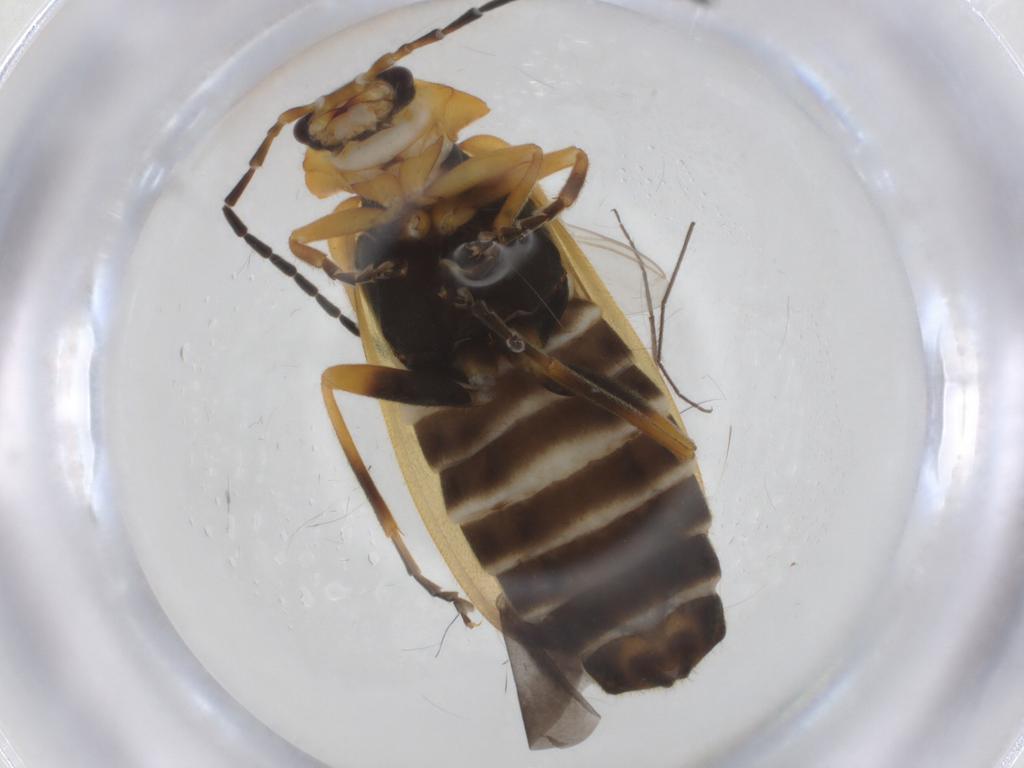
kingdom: Animalia
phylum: Arthropoda
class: Insecta
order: Coleoptera
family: Cantharidae
